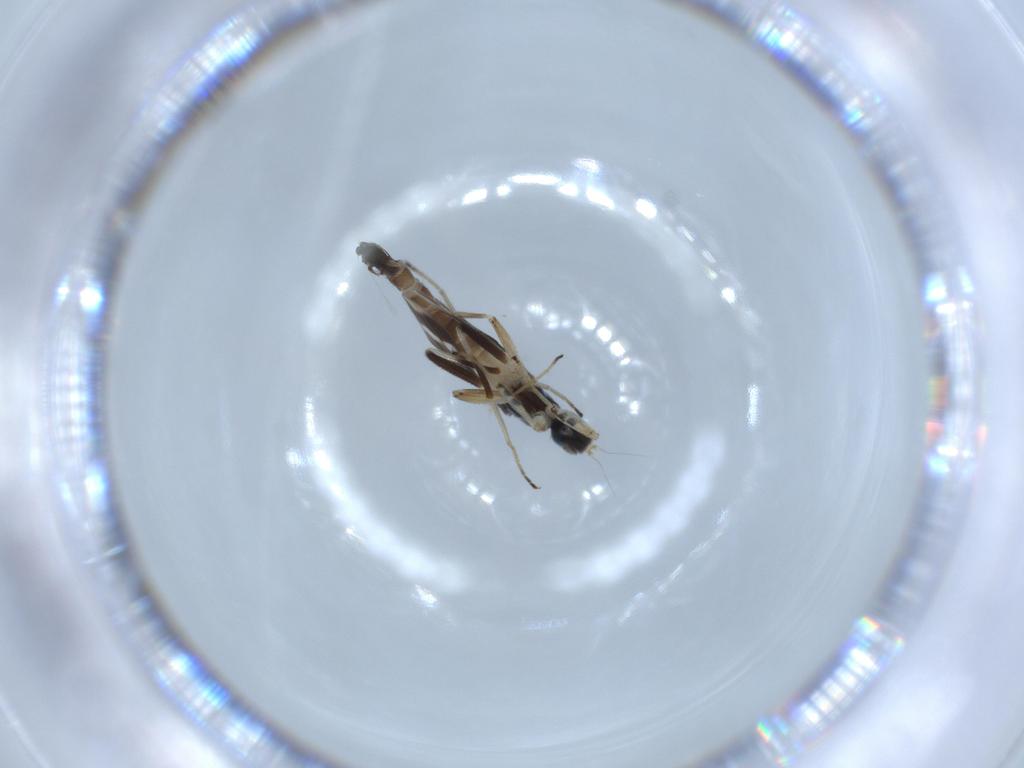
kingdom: Animalia
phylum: Arthropoda
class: Insecta
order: Diptera
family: Hybotidae
